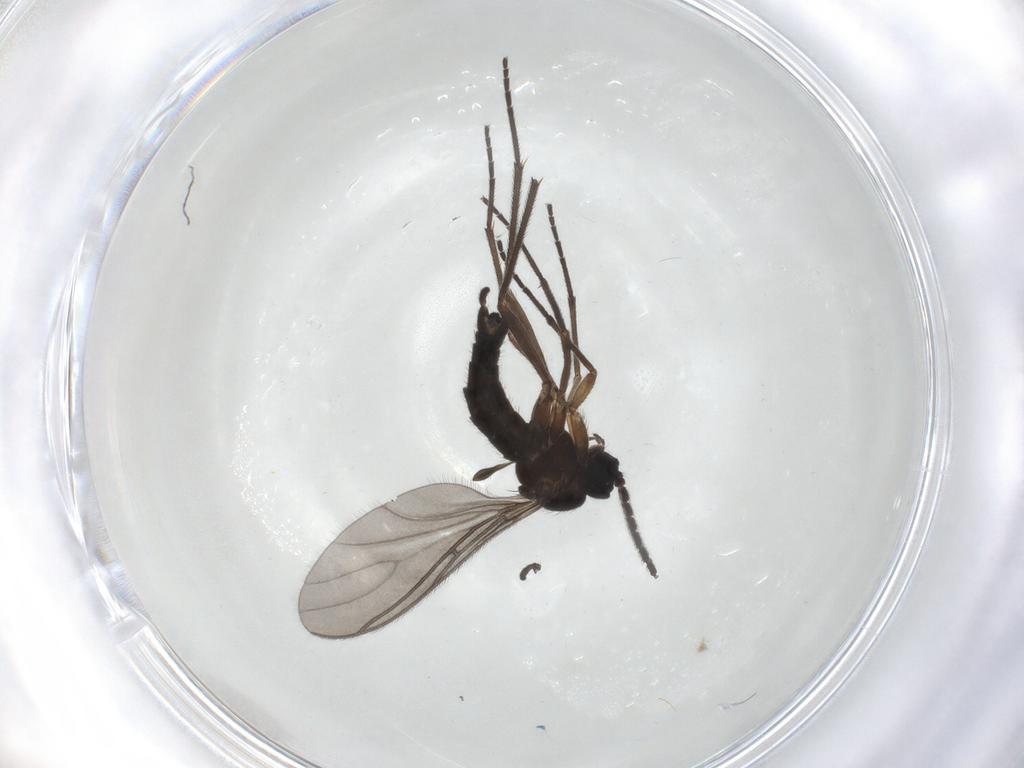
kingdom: Animalia
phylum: Arthropoda
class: Insecta
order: Diptera
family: Sciaridae
